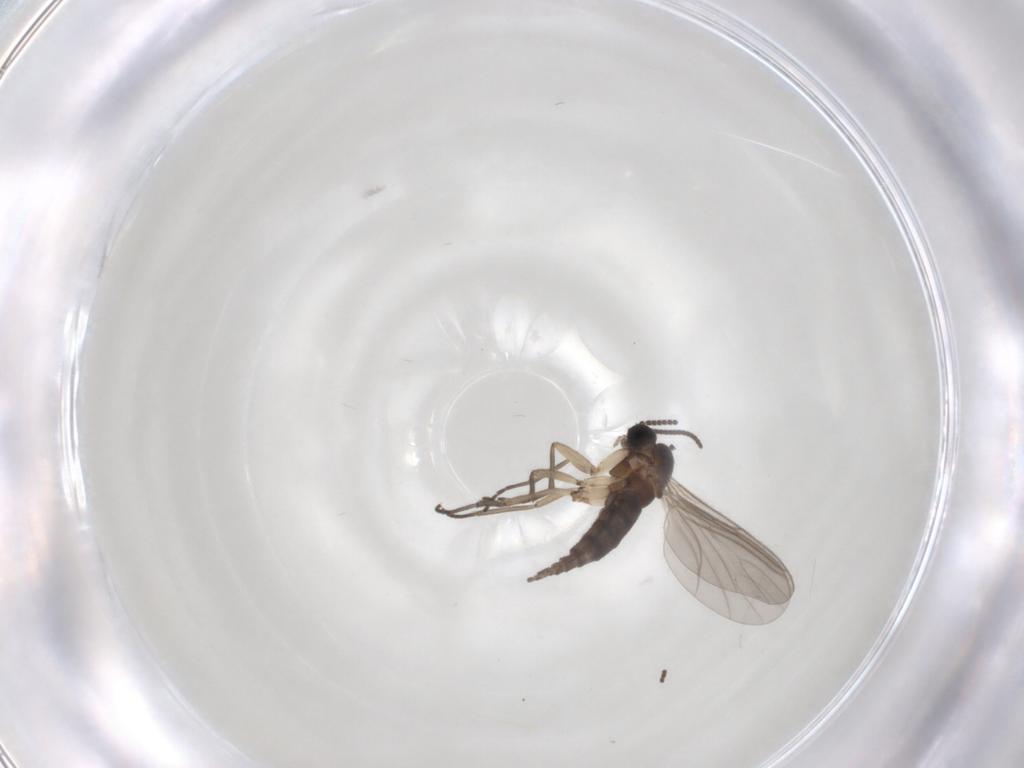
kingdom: Animalia
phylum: Arthropoda
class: Insecta
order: Diptera
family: Sciaridae
